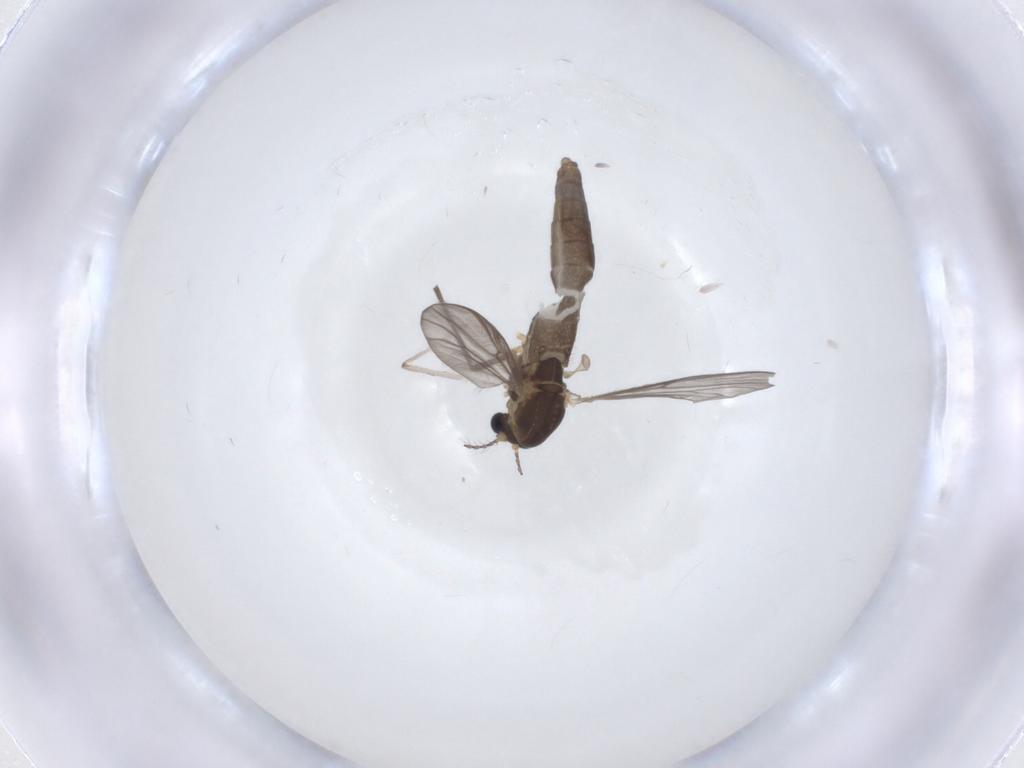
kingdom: Animalia
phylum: Arthropoda
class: Insecta
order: Diptera
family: Chironomidae
